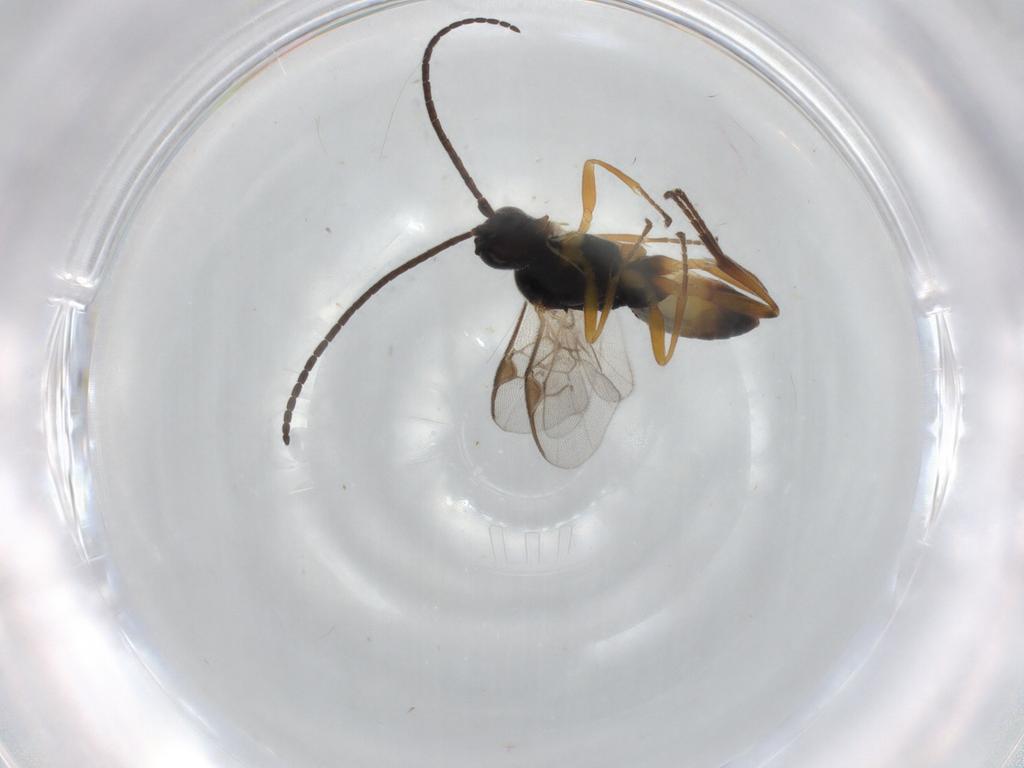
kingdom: Animalia
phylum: Arthropoda
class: Insecta
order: Hymenoptera
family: Braconidae
